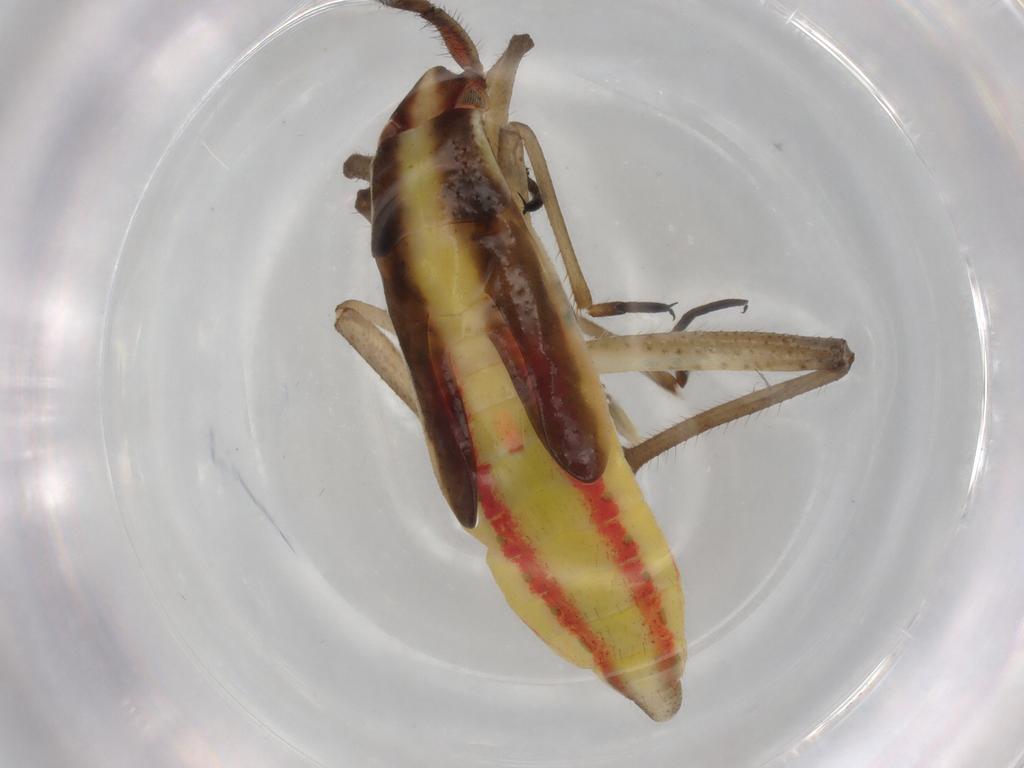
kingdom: Animalia
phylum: Arthropoda
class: Insecta
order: Hemiptera
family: Miridae
